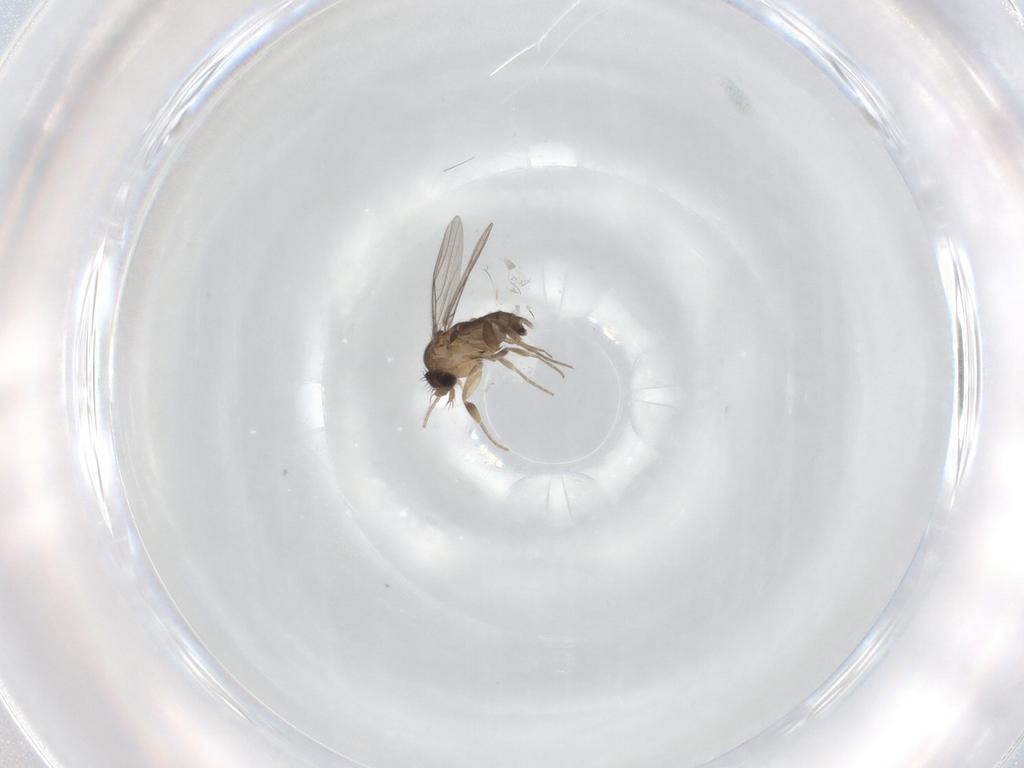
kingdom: Animalia
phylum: Arthropoda
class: Insecta
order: Diptera
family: Phoridae
